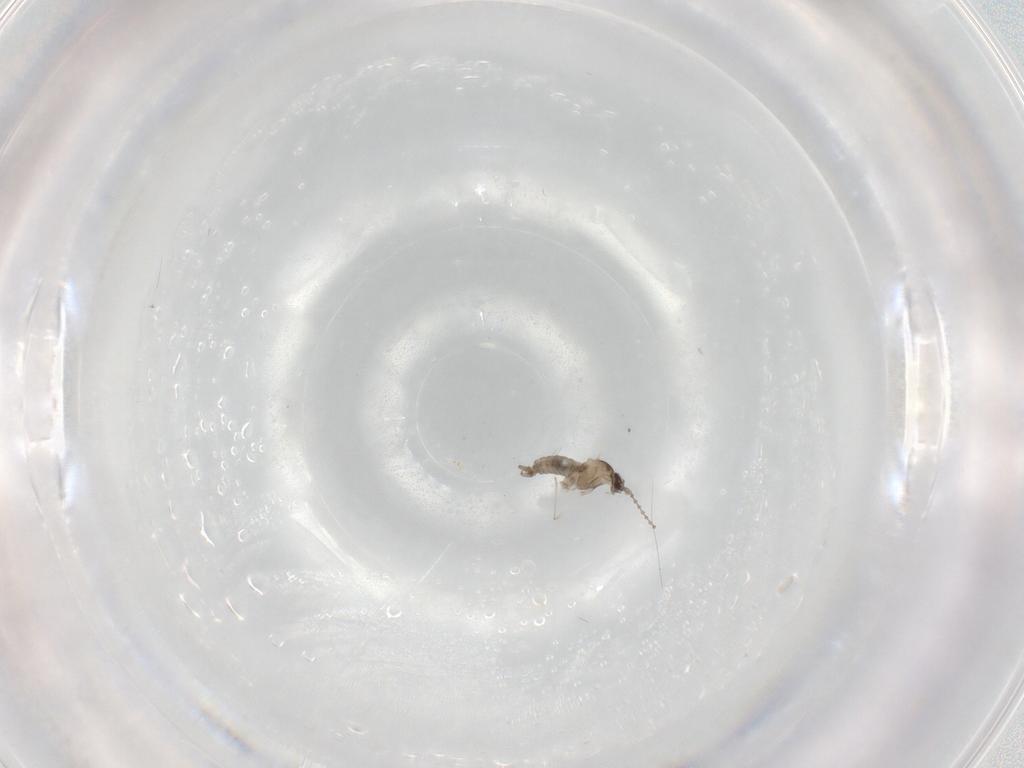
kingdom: Animalia
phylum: Arthropoda
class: Insecta
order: Diptera
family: Cecidomyiidae
